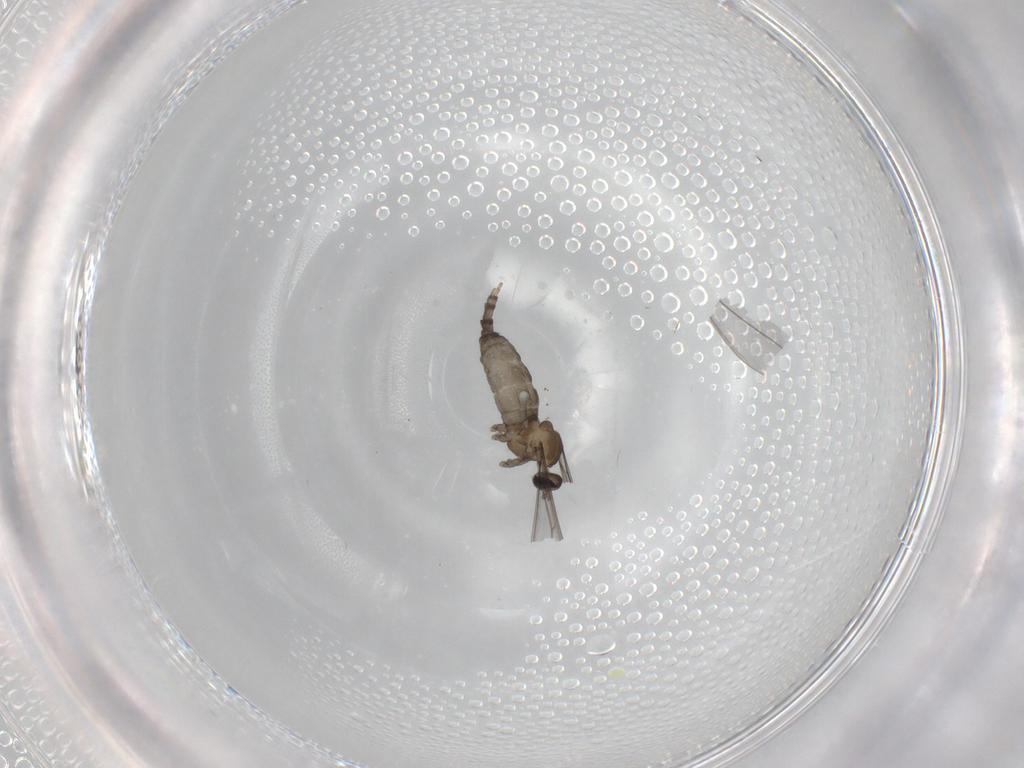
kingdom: Animalia
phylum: Arthropoda
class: Insecta
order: Diptera
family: Cecidomyiidae
